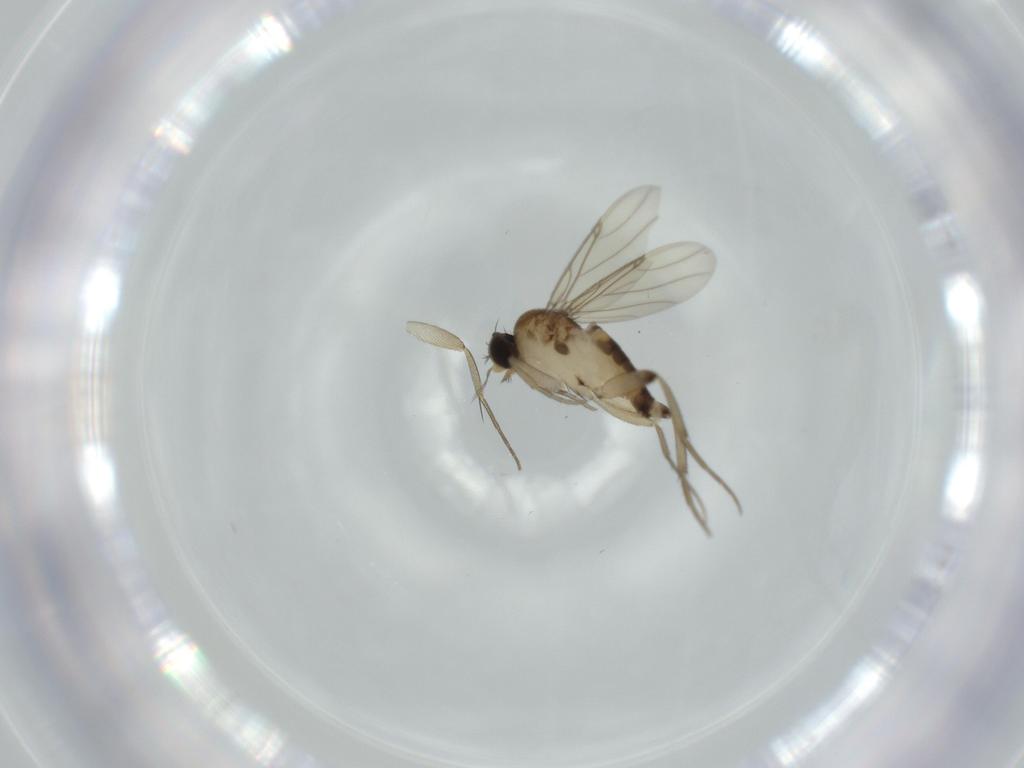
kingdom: Animalia
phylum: Arthropoda
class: Insecta
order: Diptera
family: Phoridae
